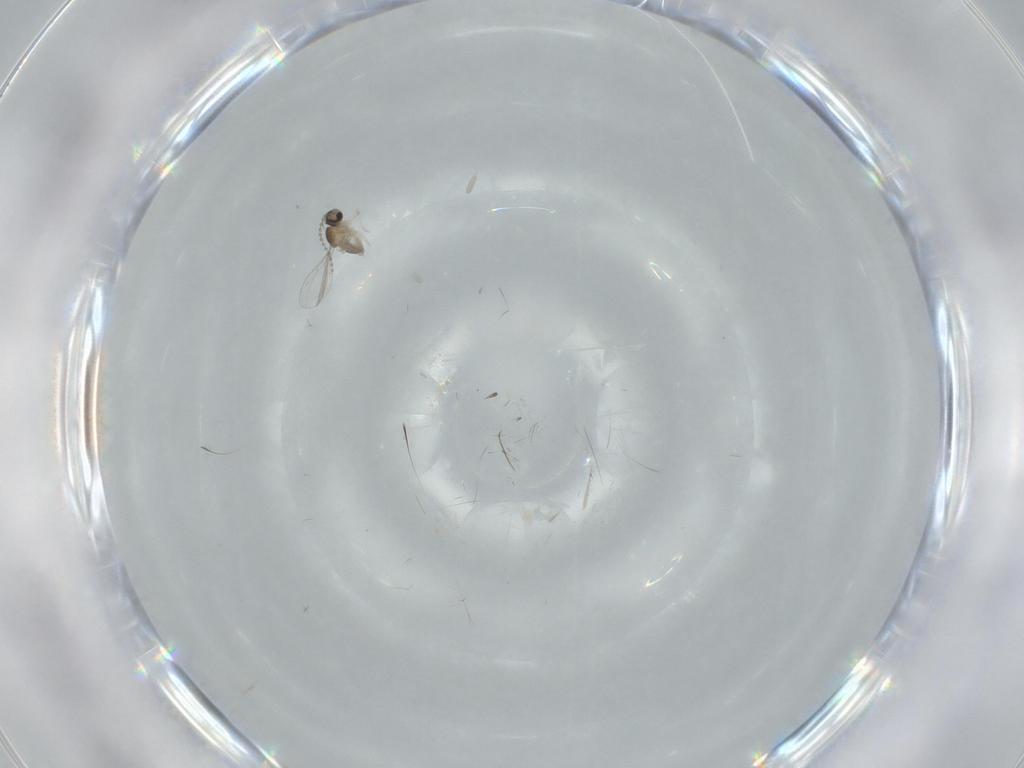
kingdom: Animalia
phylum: Arthropoda
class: Insecta
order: Diptera
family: Cecidomyiidae
